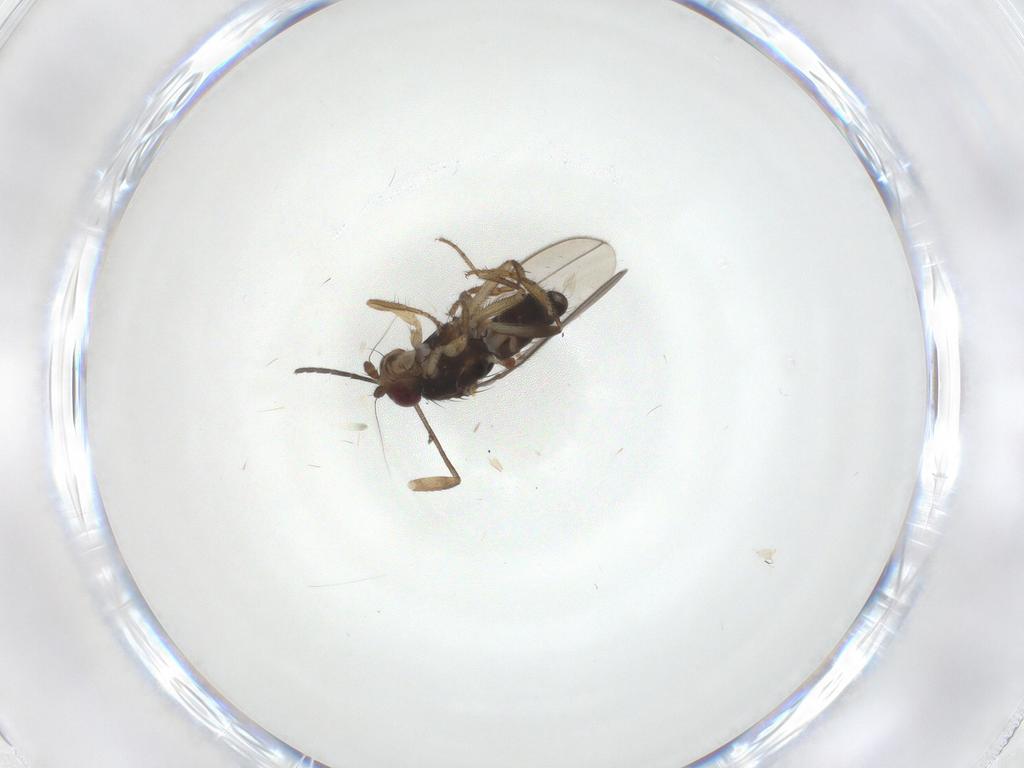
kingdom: Animalia
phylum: Arthropoda
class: Insecta
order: Diptera
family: Sphaeroceridae
